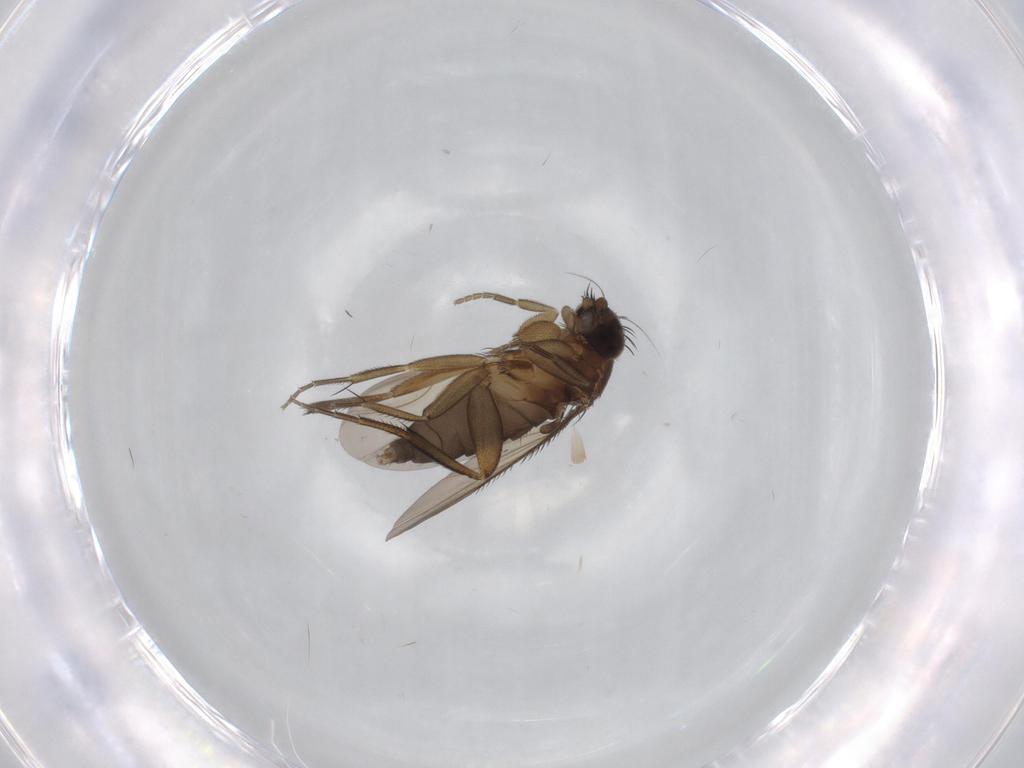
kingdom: Animalia
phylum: Arthropoda
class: Insecta
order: Diptera
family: Phoridae
